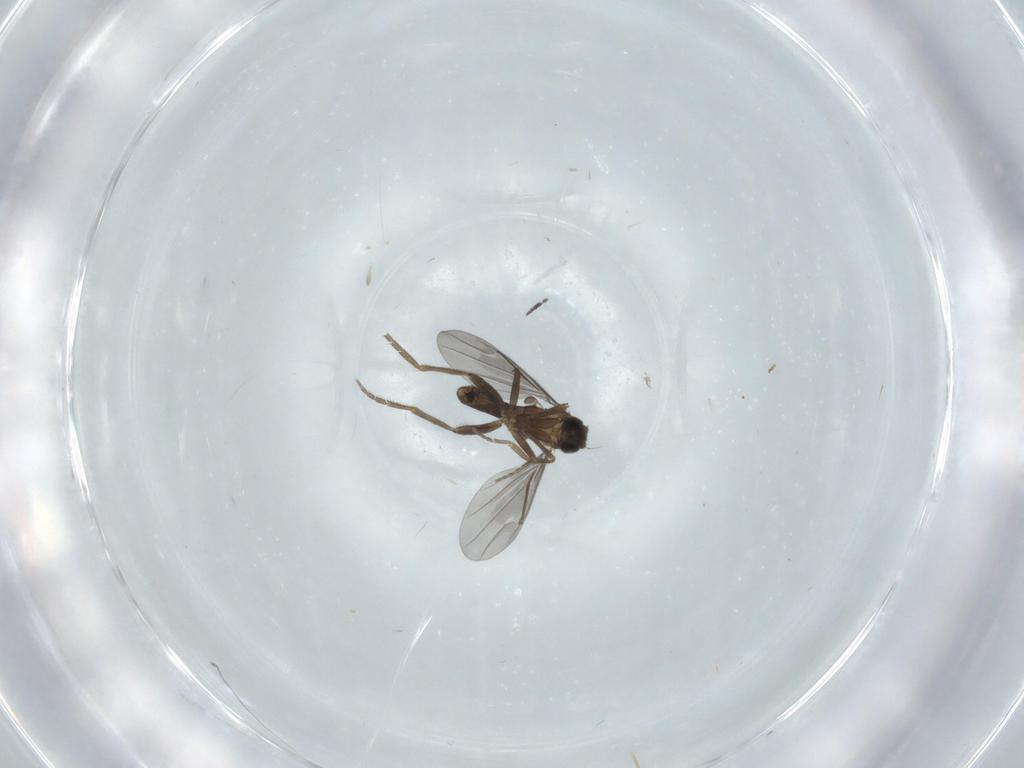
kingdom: Animalia
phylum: Arthropoda
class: Insecta
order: Diptera
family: Phoridae
